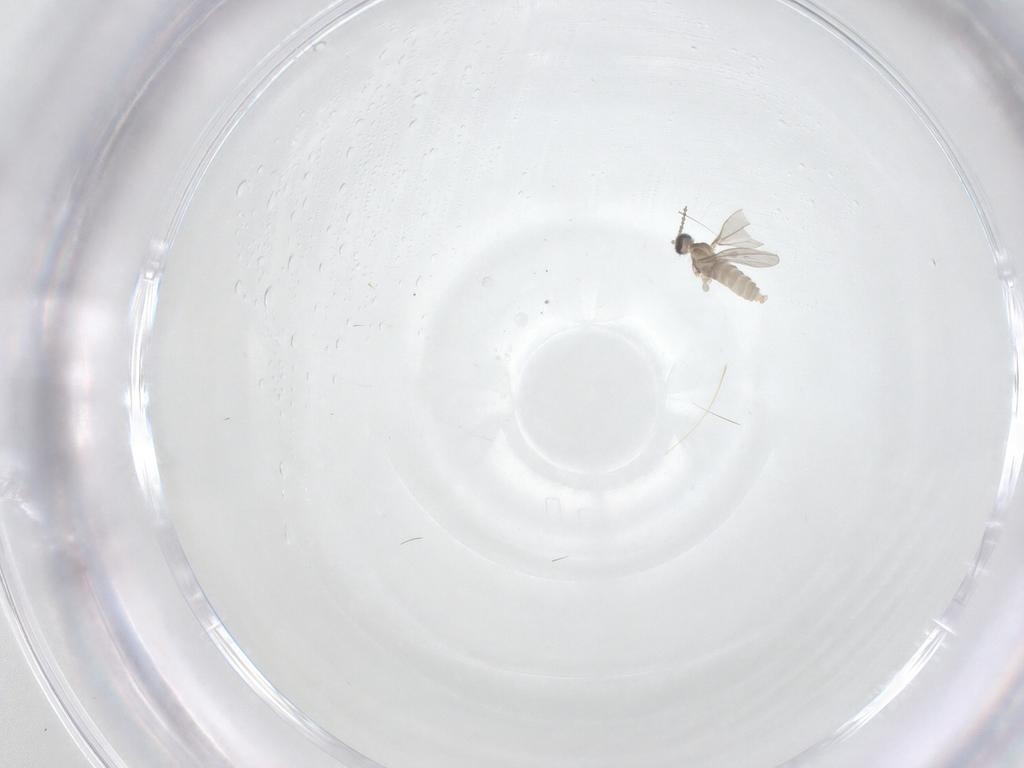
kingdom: Animalia
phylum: Arthropoda
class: Insecta
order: Diptera
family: Cecidomyiidae
